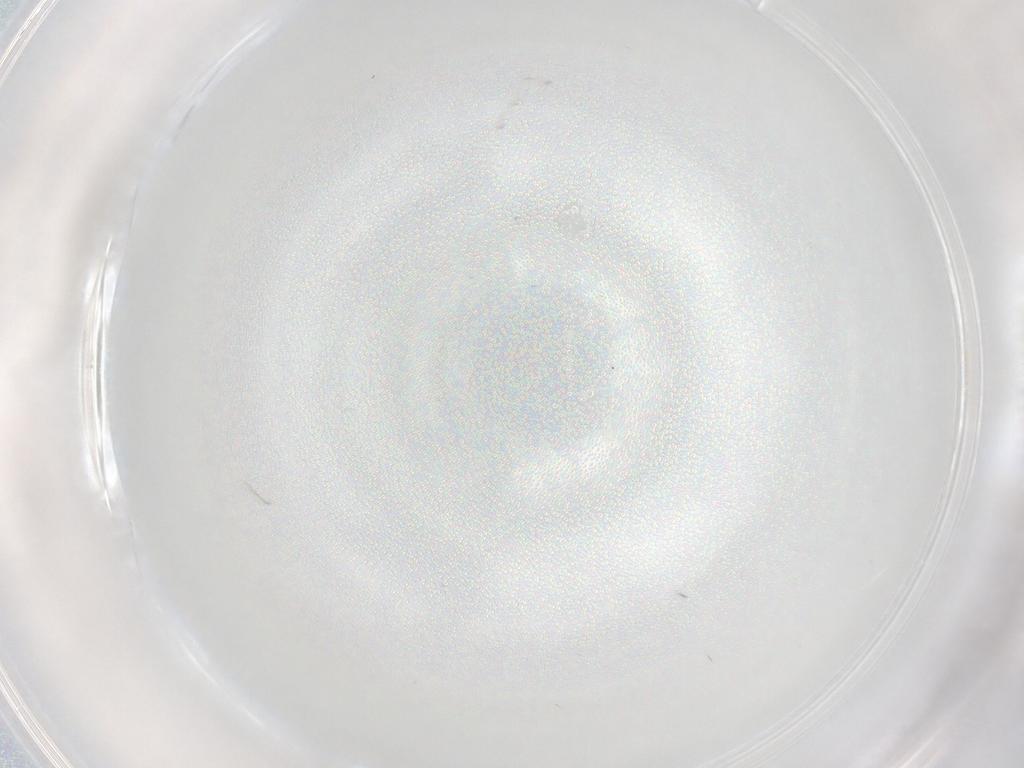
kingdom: Animalia
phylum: Arthropoda
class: Insecta
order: Diptera
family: Cecidomyiidae
